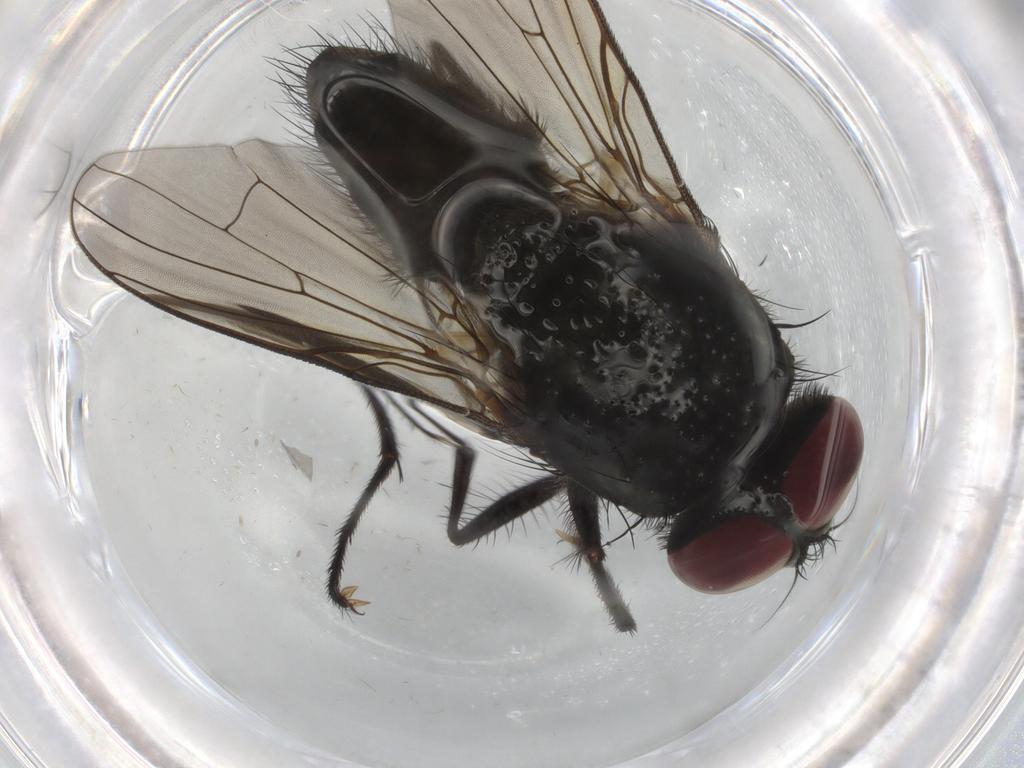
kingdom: Animalia
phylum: Arthropoda
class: Insecta
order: Diptera
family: Muscidae
